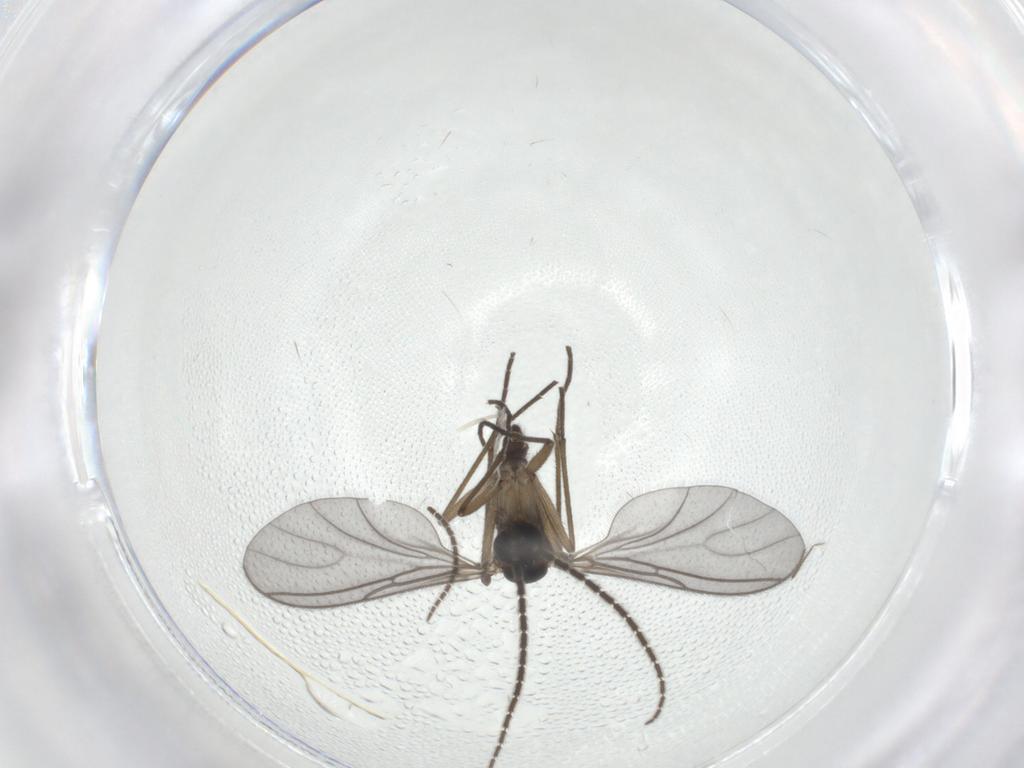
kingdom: Animalia
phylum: Arthropoda
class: Insecta
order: Diptera
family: Sciaridae
